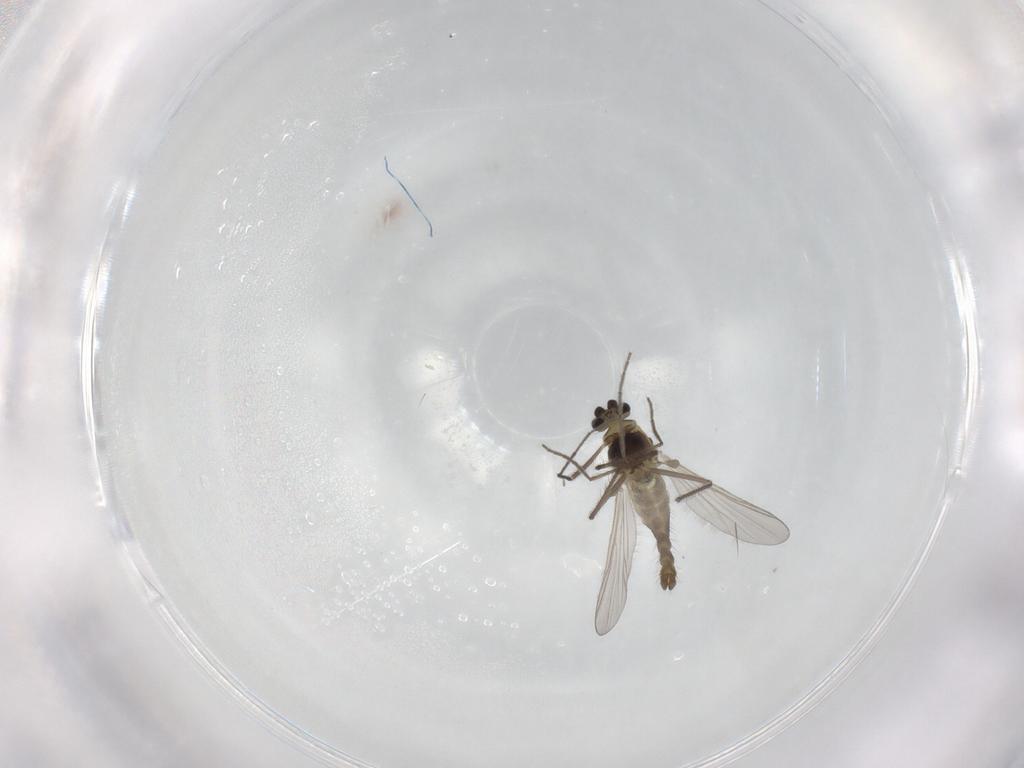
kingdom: Animalia
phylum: Arthropoda
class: Insecta
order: Diptera
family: Chironomidae
